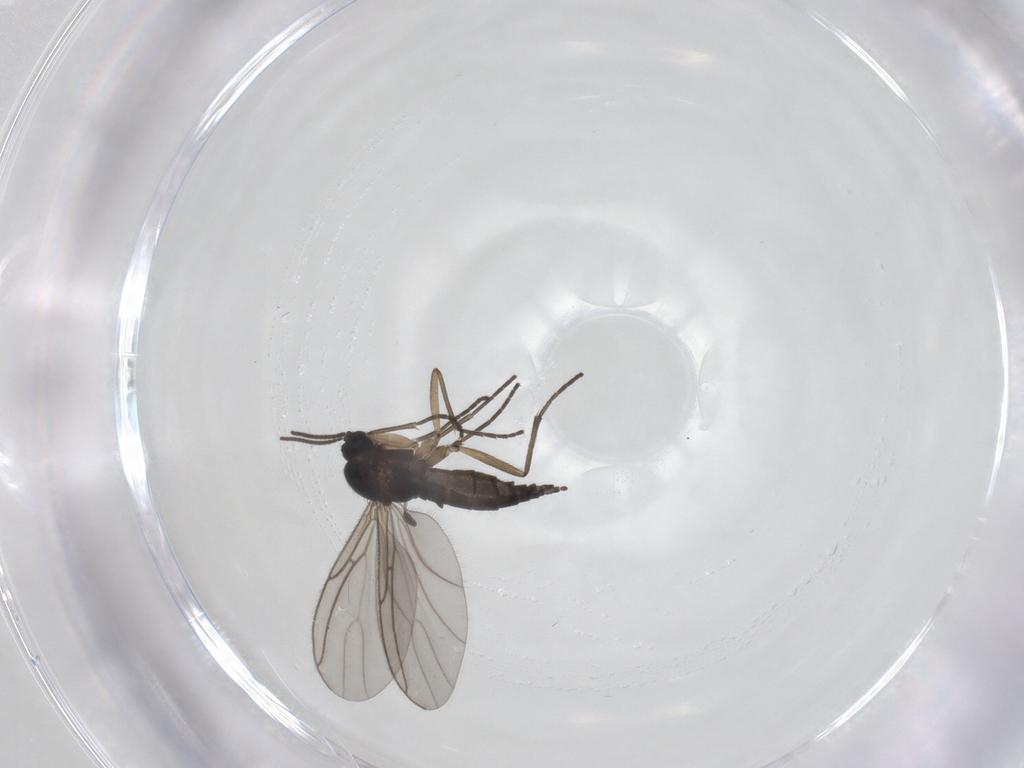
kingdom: Animalia
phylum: Arthropoda
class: Insecta
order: Diptera
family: Sciaridae
